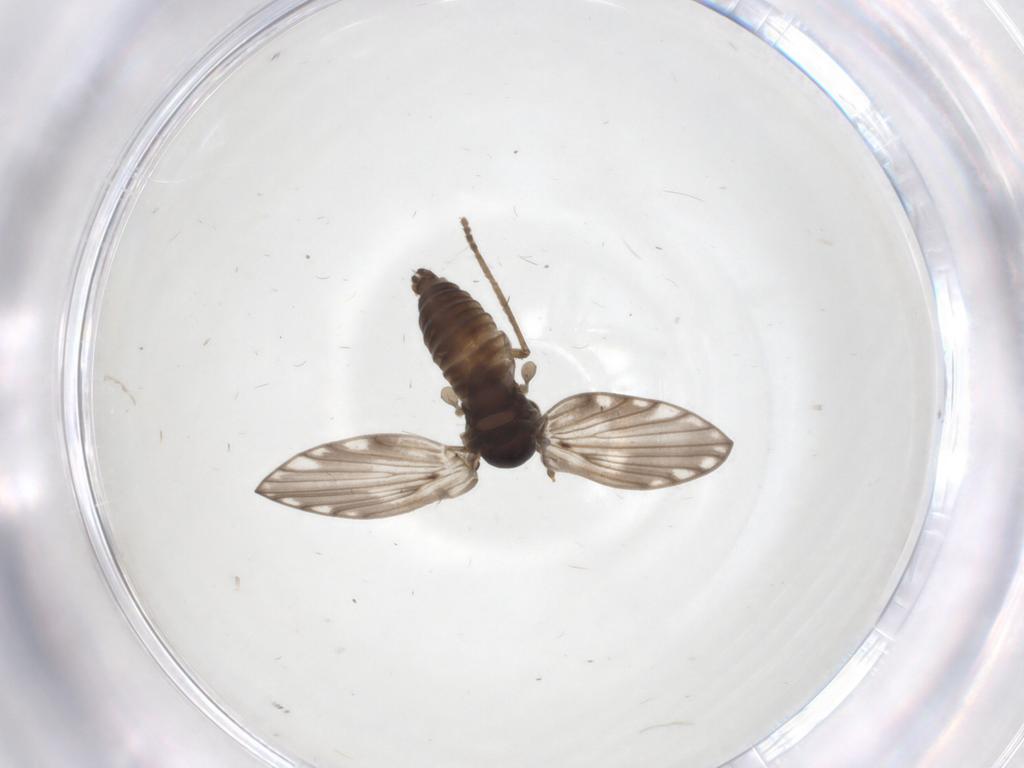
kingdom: Animalia
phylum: Arthropoda
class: Insecta
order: Diptera
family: Psychodidae
